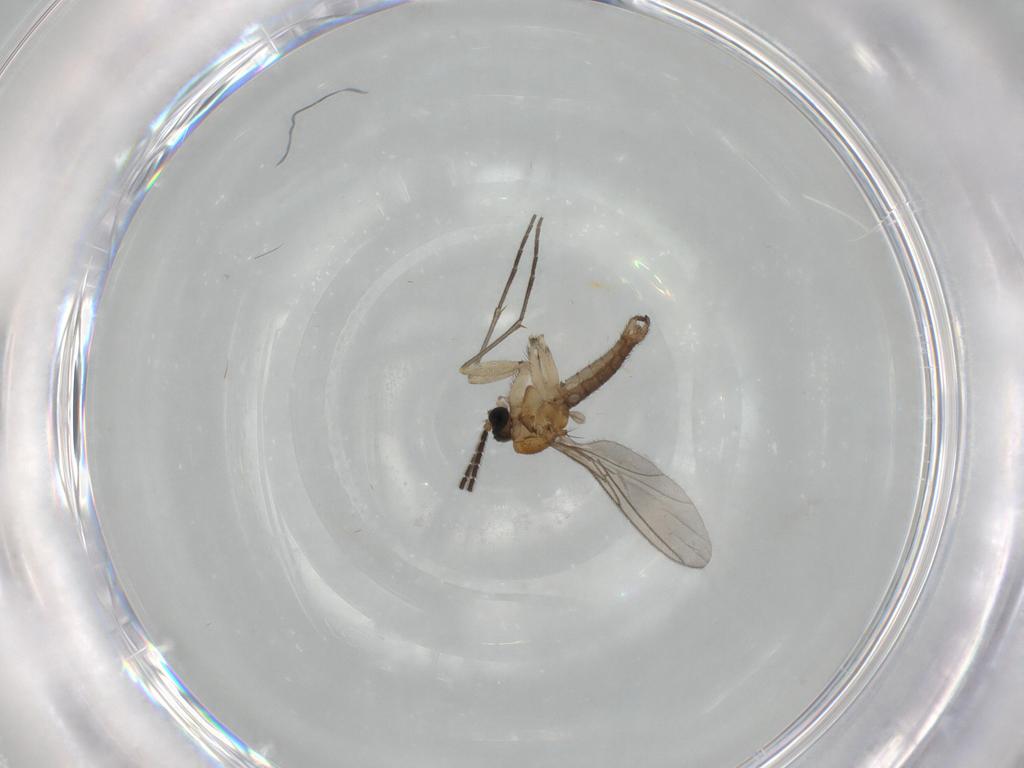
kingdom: Animalia
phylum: Arthropoda
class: Insecta
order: Diptera
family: Sciaridae
